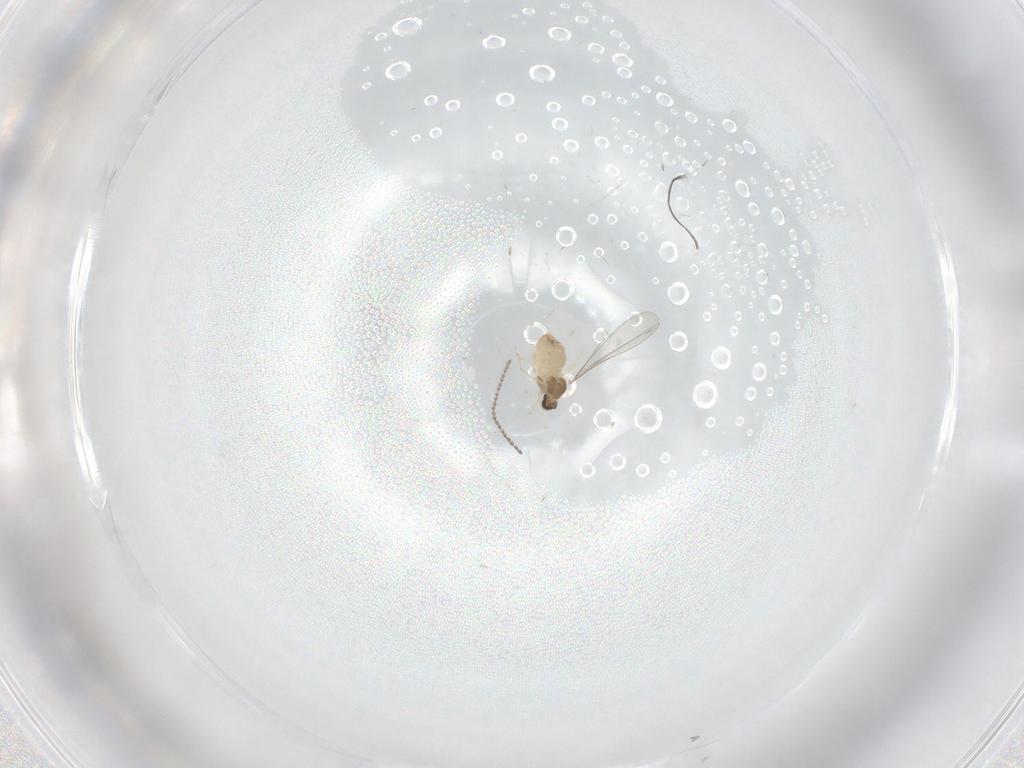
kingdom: Animalia
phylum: Arthropoda
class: Insecta
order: Diptera
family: Cecidomyiidae
